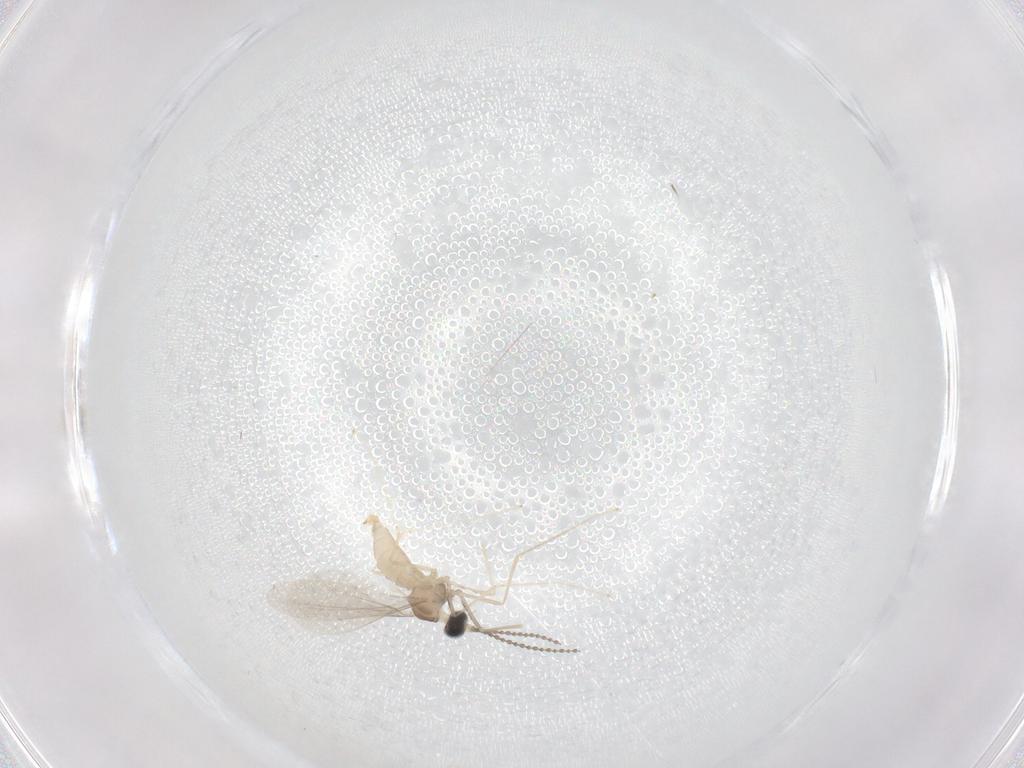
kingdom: Animalia
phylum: Arthropoda
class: Insecta
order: Diptera
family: Cecidomyiidae
